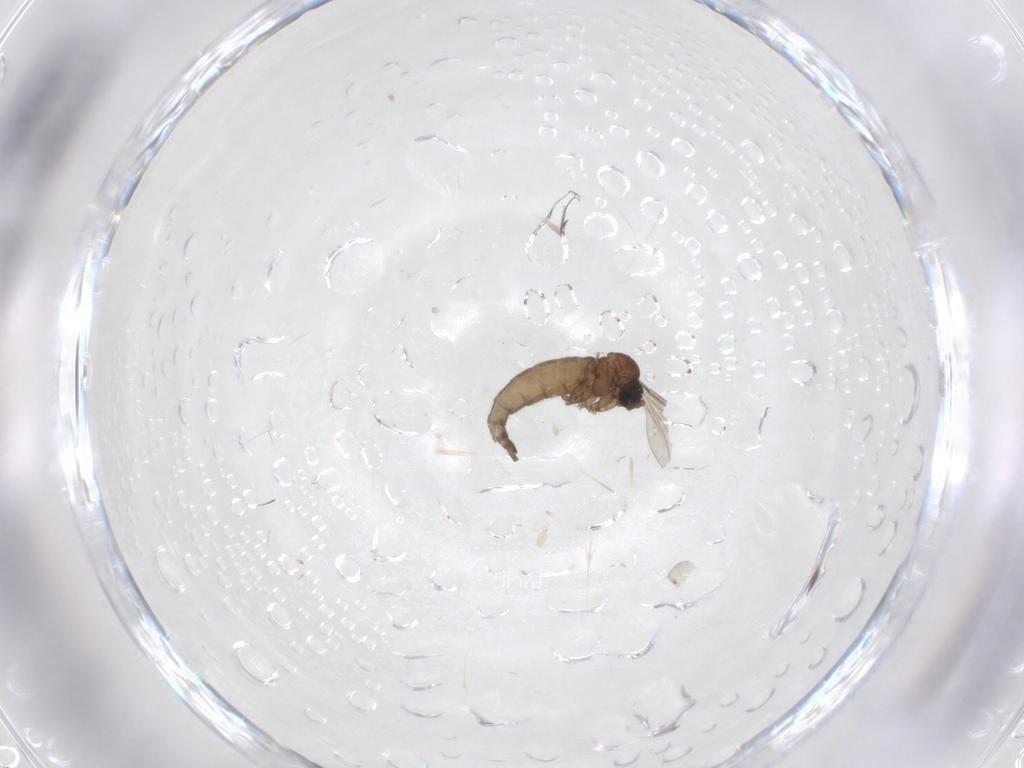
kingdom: Animalia
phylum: Arthropoda
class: Insecta
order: Diptera
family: Sciaridae
